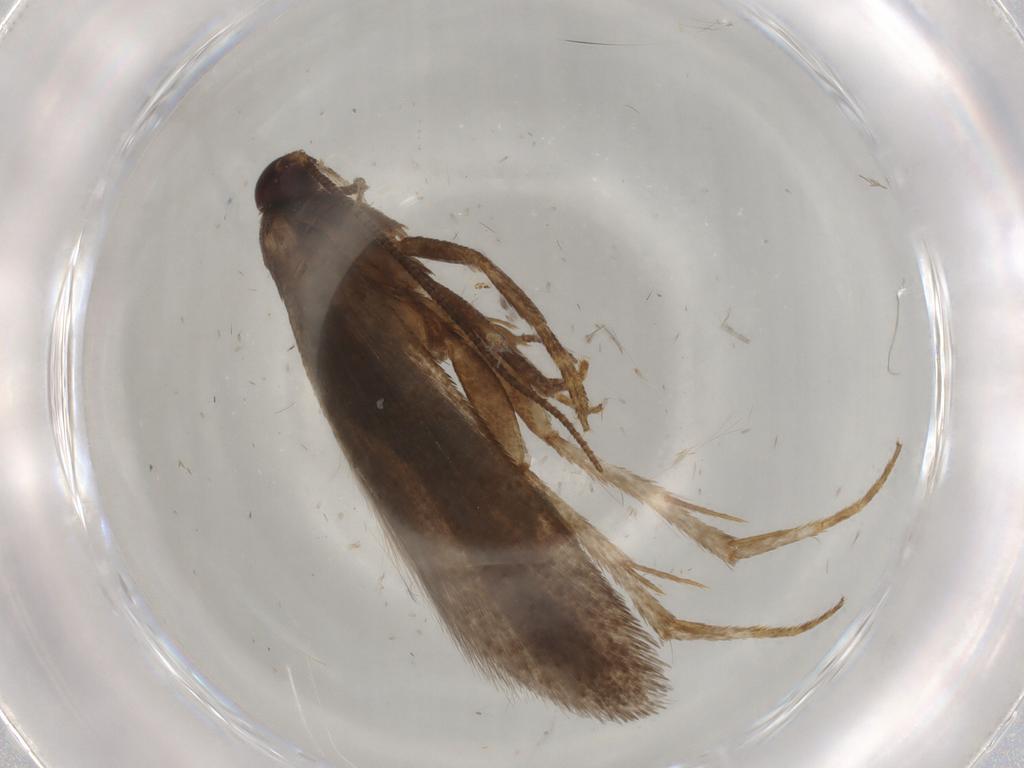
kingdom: Animalia
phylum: Arthropoda
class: Insecta
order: Lepidoptera
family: Gelechiidae
